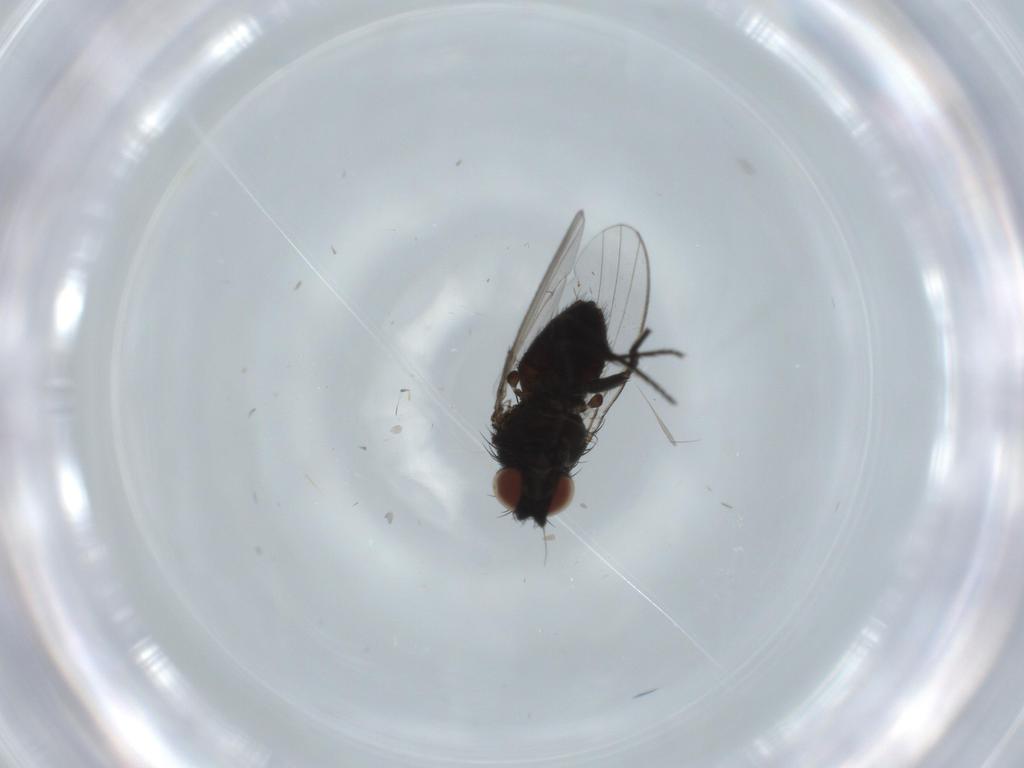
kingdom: Animalia
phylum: Arthropoda
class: Insecta
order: Diptera
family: Milichiidae
